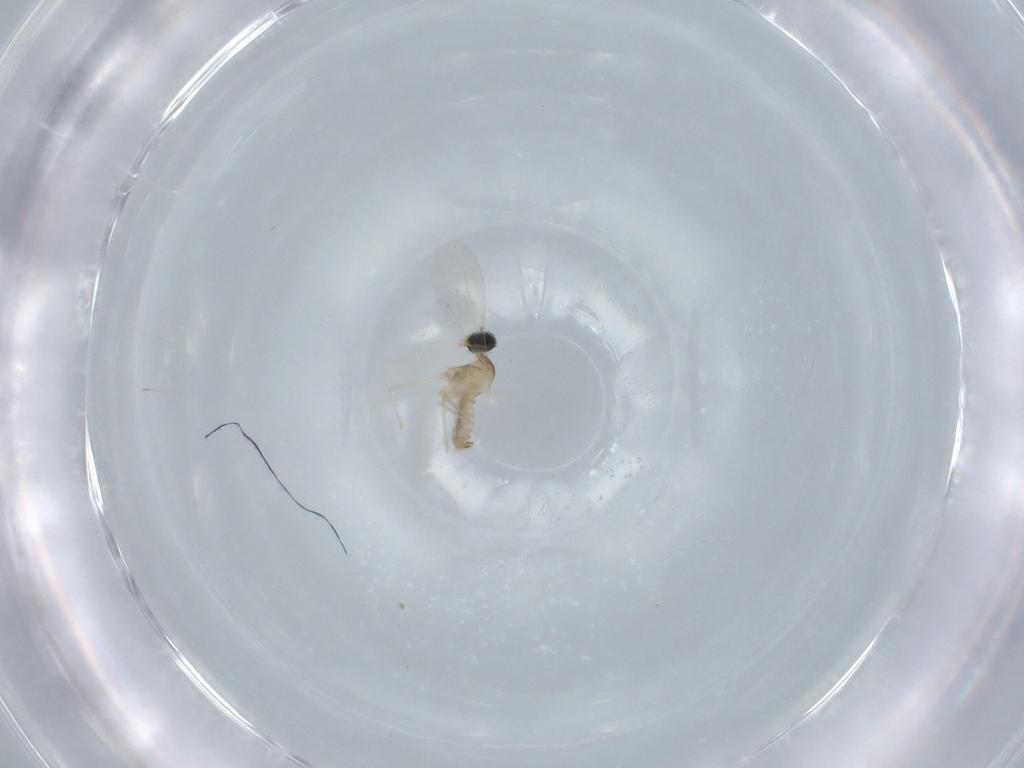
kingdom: Animalia
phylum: Arthropoda
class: Insecta
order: Diptera
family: Cecidomyiidae
